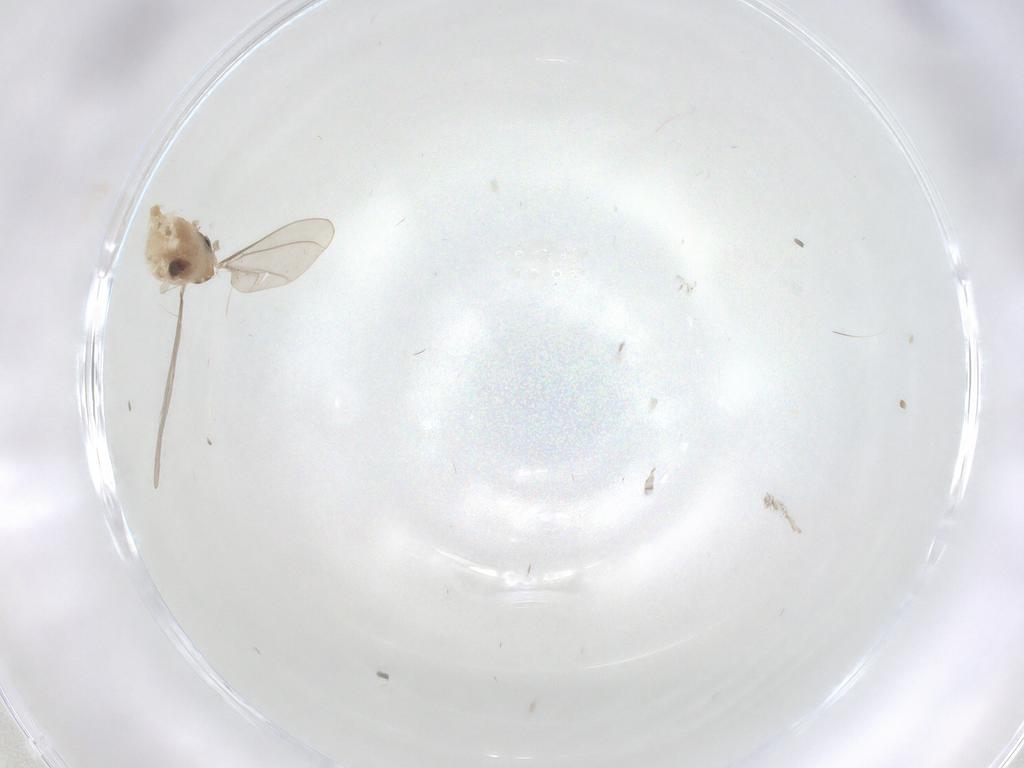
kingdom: Animalia
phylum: Arthropoda
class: Insecta
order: Diptera
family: Cecidomyiidae
